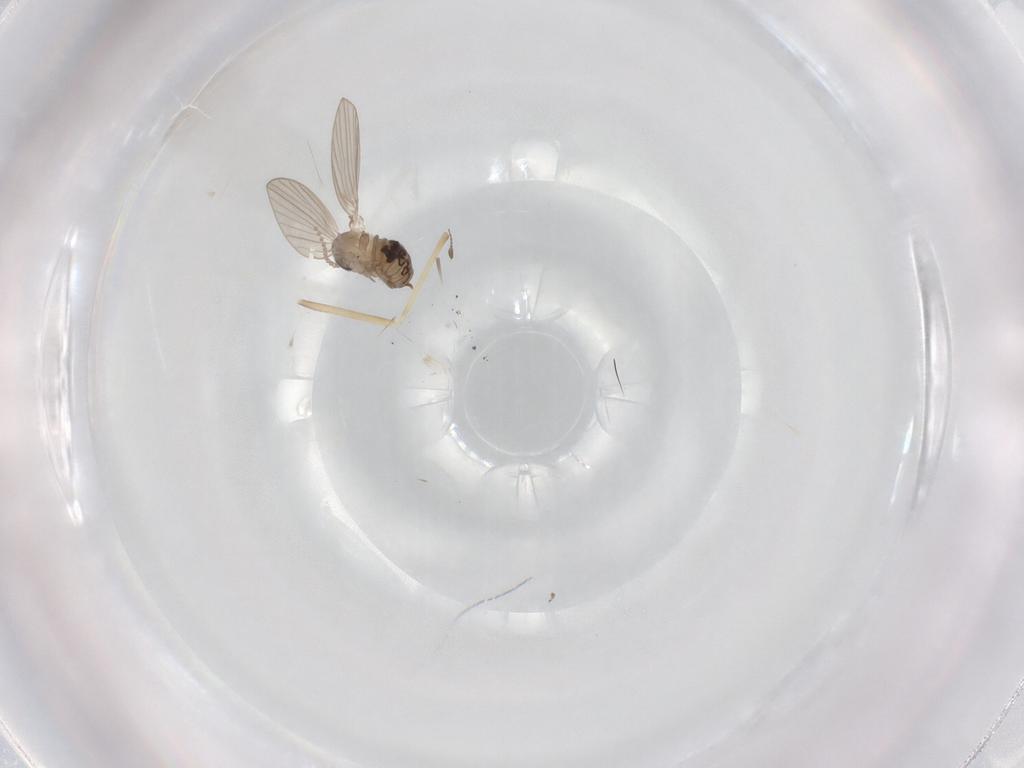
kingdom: Animalia
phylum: Arthropoda
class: Insecta
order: Diptera
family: Psychodidae
